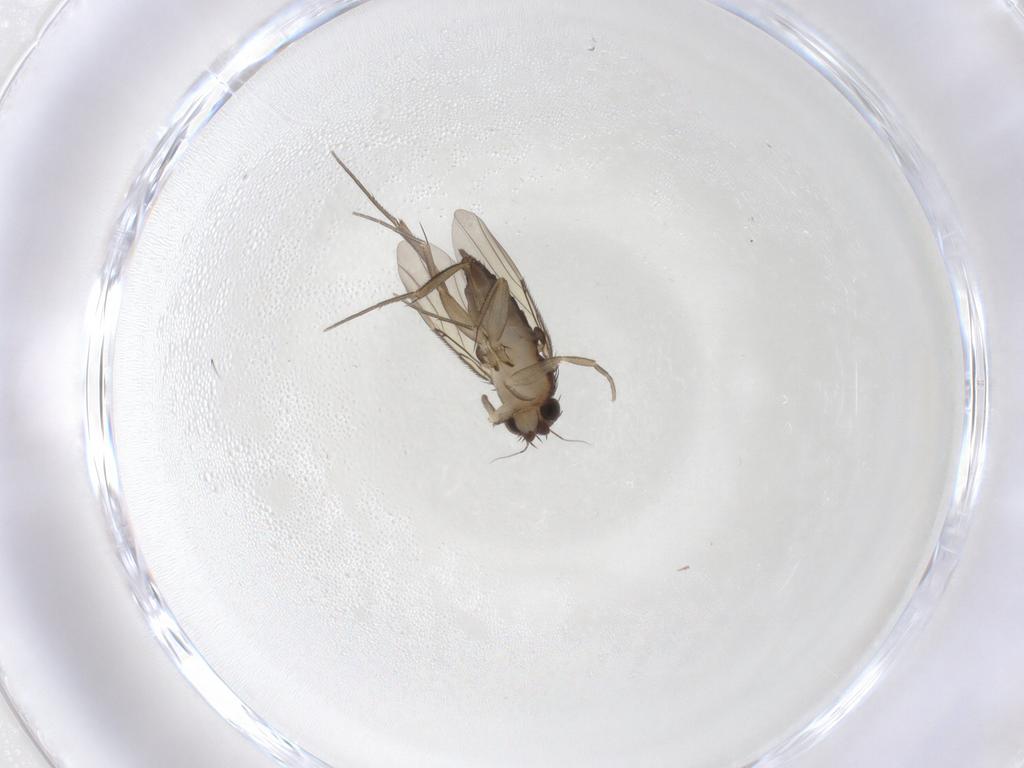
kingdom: Animalia
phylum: Arthropoda
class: Insecta
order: Diptera
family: Phoridae
